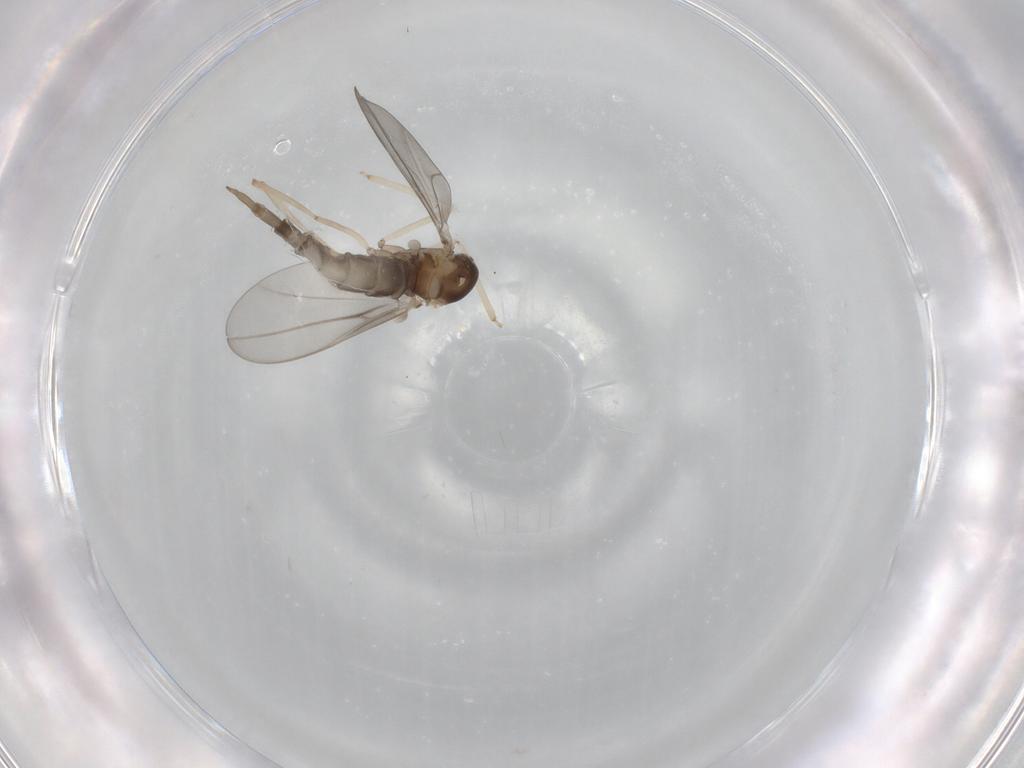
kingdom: Animalia
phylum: Arthropoda
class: Insecta
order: Diptera
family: Cecidomyiidae
